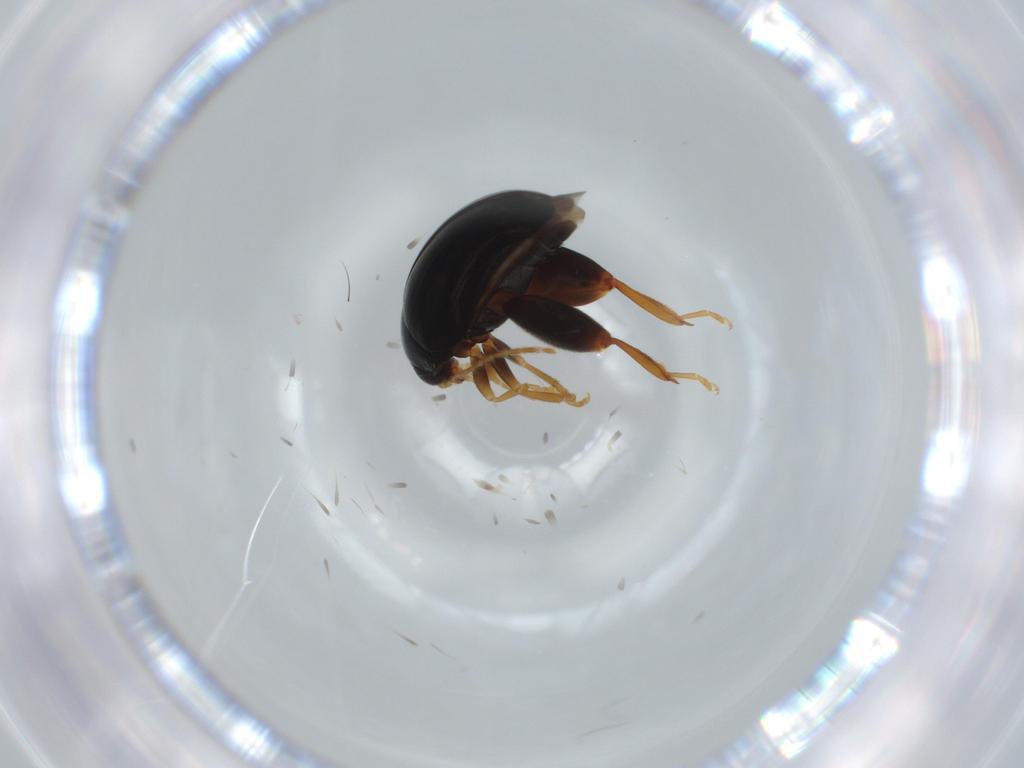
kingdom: Animalia
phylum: Arthropoda
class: Insecta
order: Coleoptera
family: Chrysomelidae
